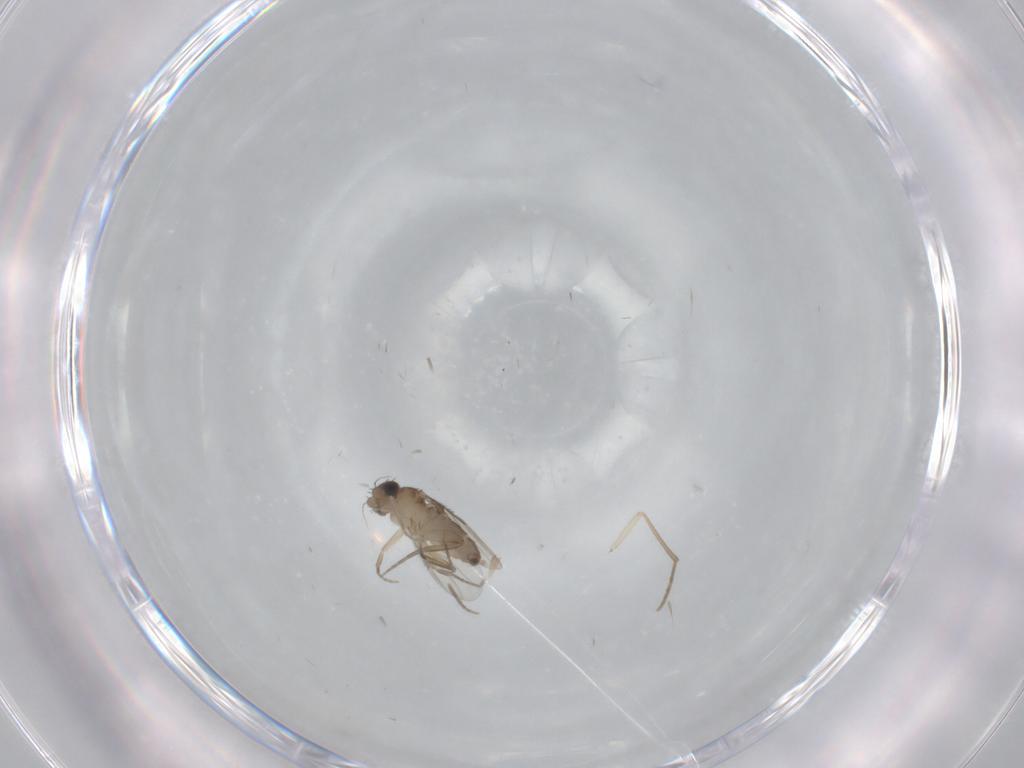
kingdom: Animalia
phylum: Arthropoda
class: Insecta
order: Diptera
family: Phoridae
